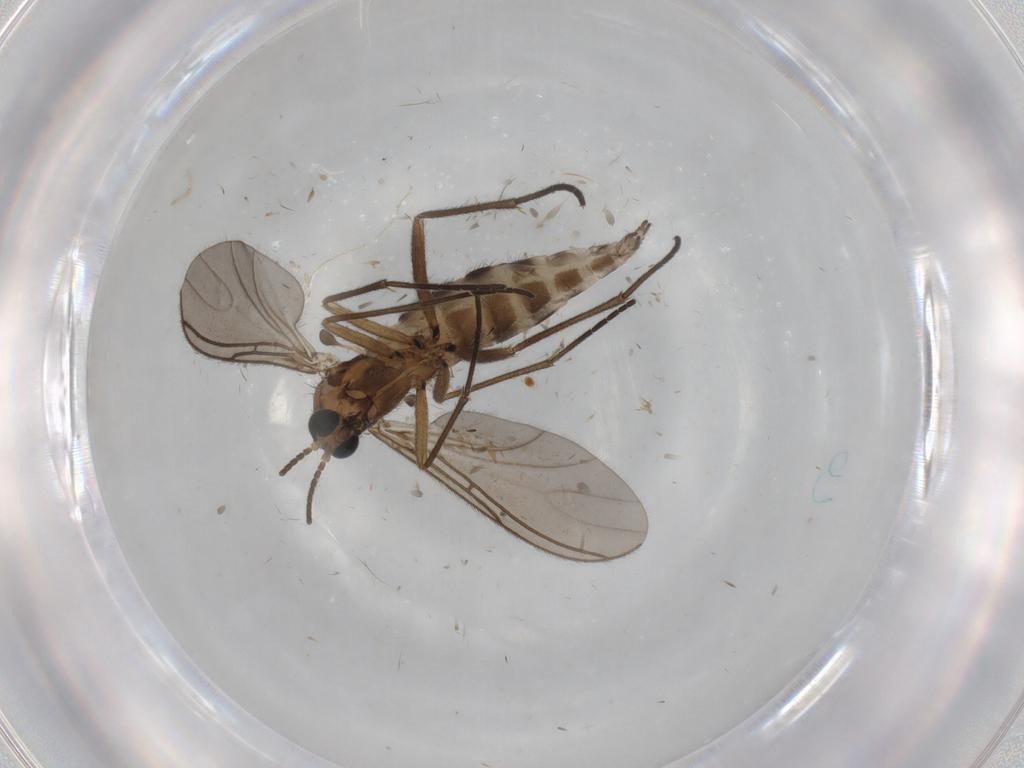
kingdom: Animalia
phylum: Arthropoda
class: Insecta
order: Diptera
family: Sciaridae
